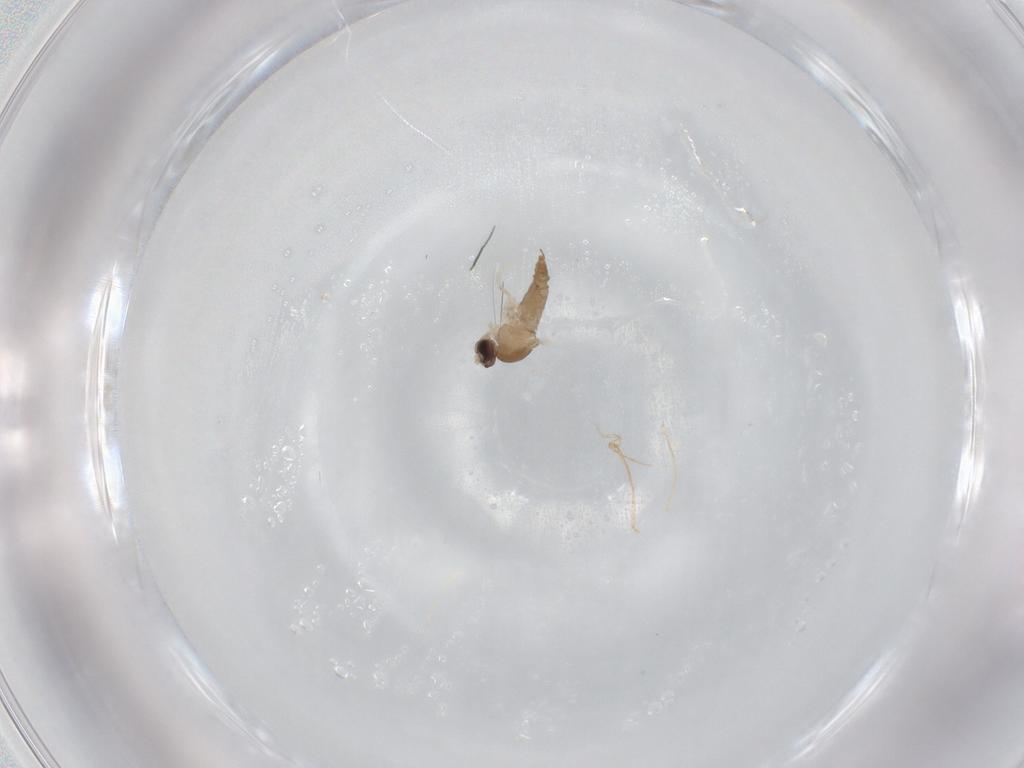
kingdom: Animalia
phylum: Arthropoda
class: Insecta
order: Diptera
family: Cecidomyiidae
